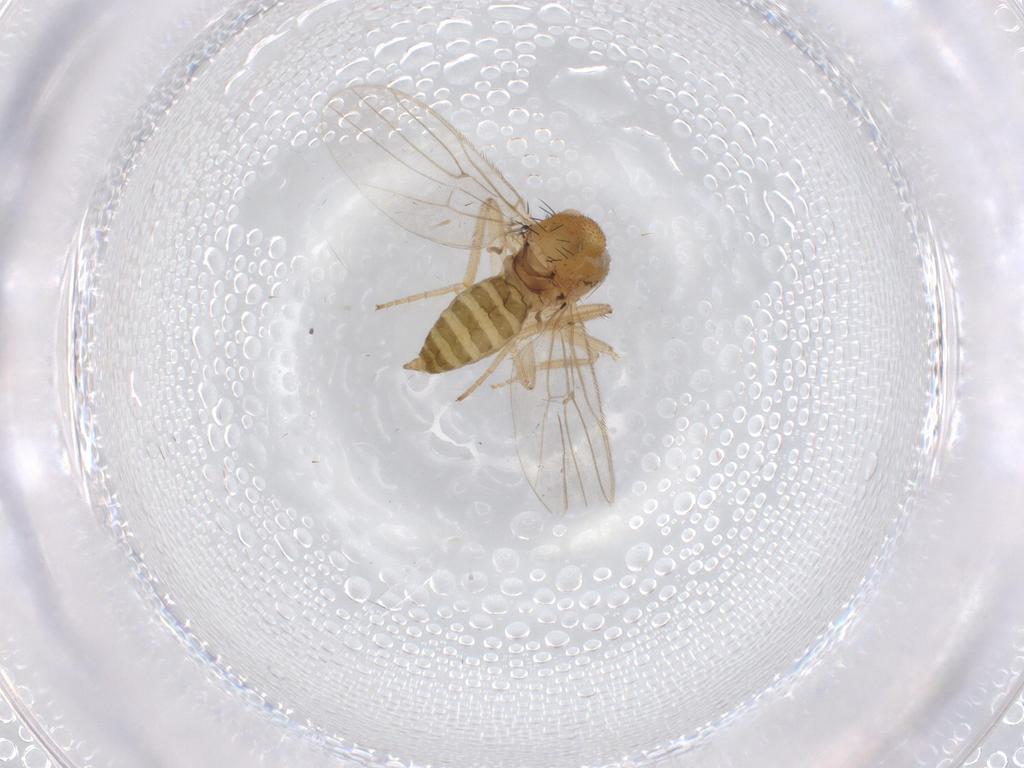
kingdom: Animalia
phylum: Arthropoda
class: Insecta
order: Diptera
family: Hybotidae
